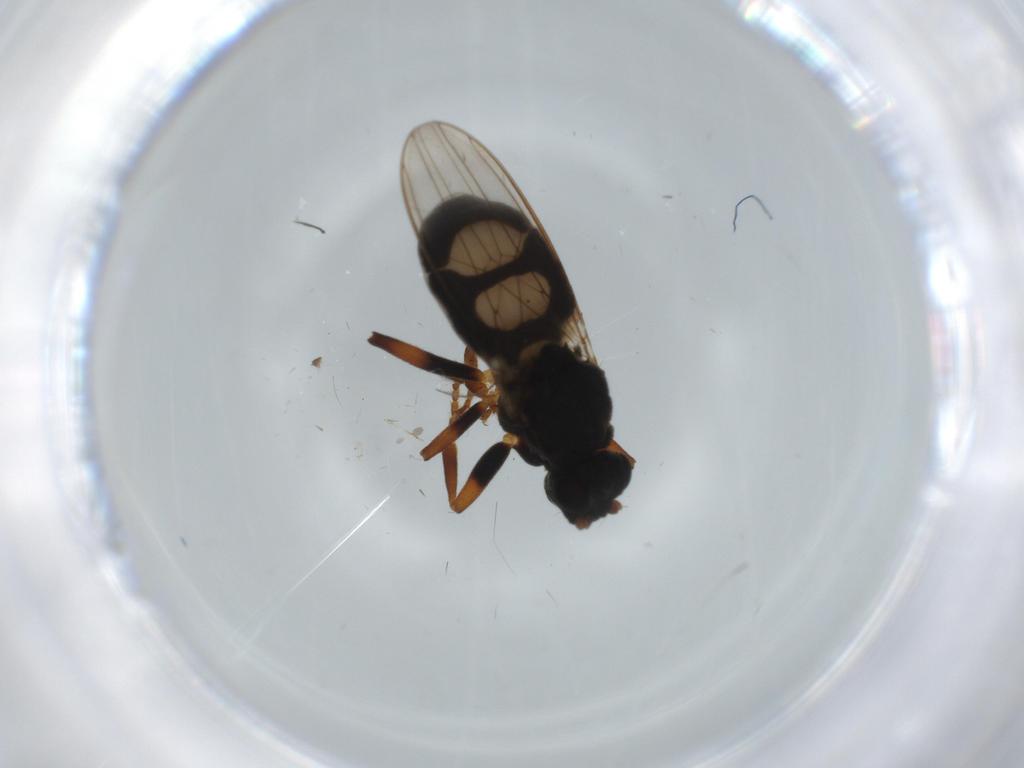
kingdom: Animalia
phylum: Arthropoda
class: Insecta
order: Diptera
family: Sphaeroceridae
